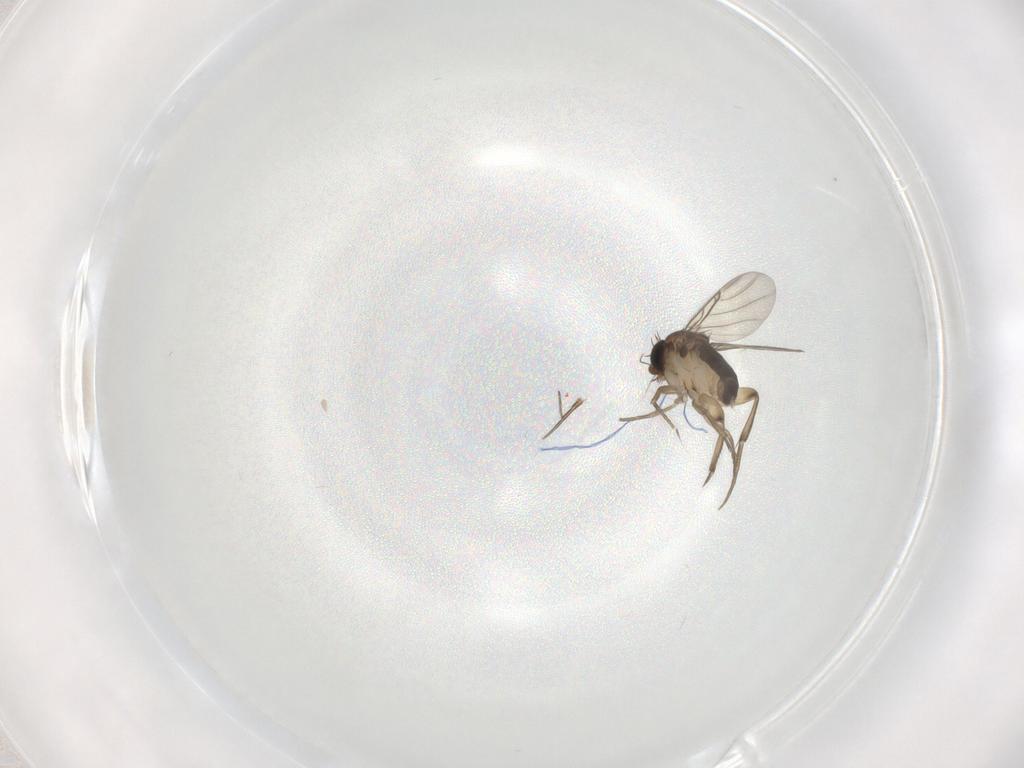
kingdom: Animalia
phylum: Arthropoda
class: Insecta
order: Diptera
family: Phoridae
